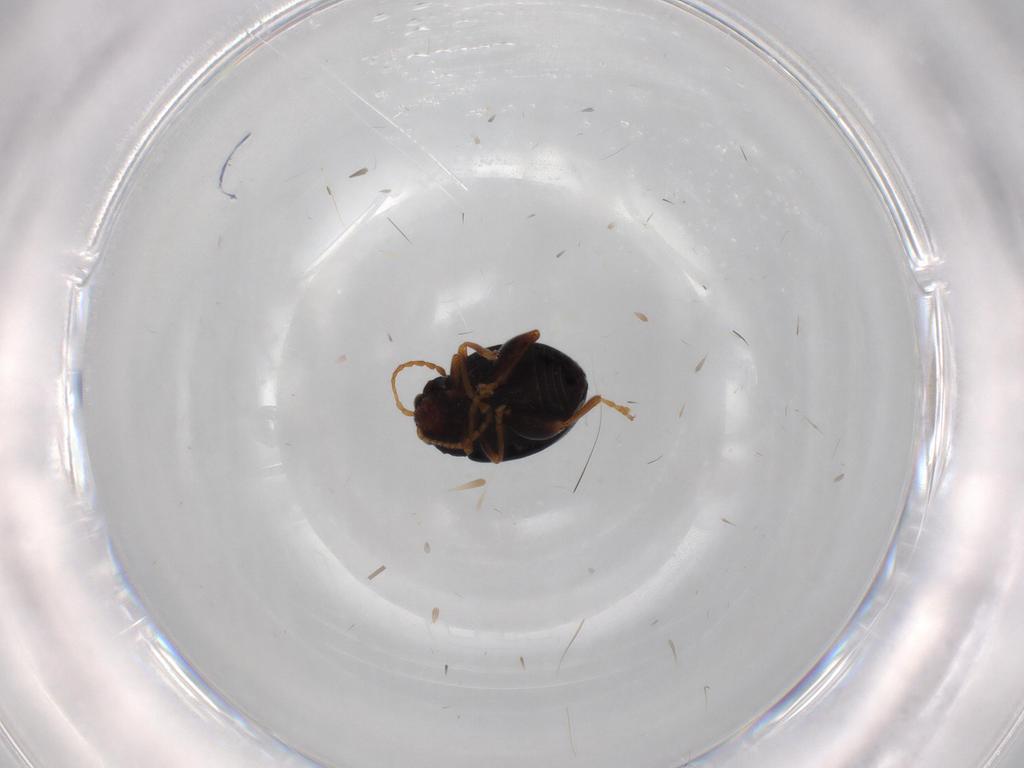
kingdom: Animalia
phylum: Arthropoda
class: Insecta
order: Coleoptera
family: Chrysomelidae
